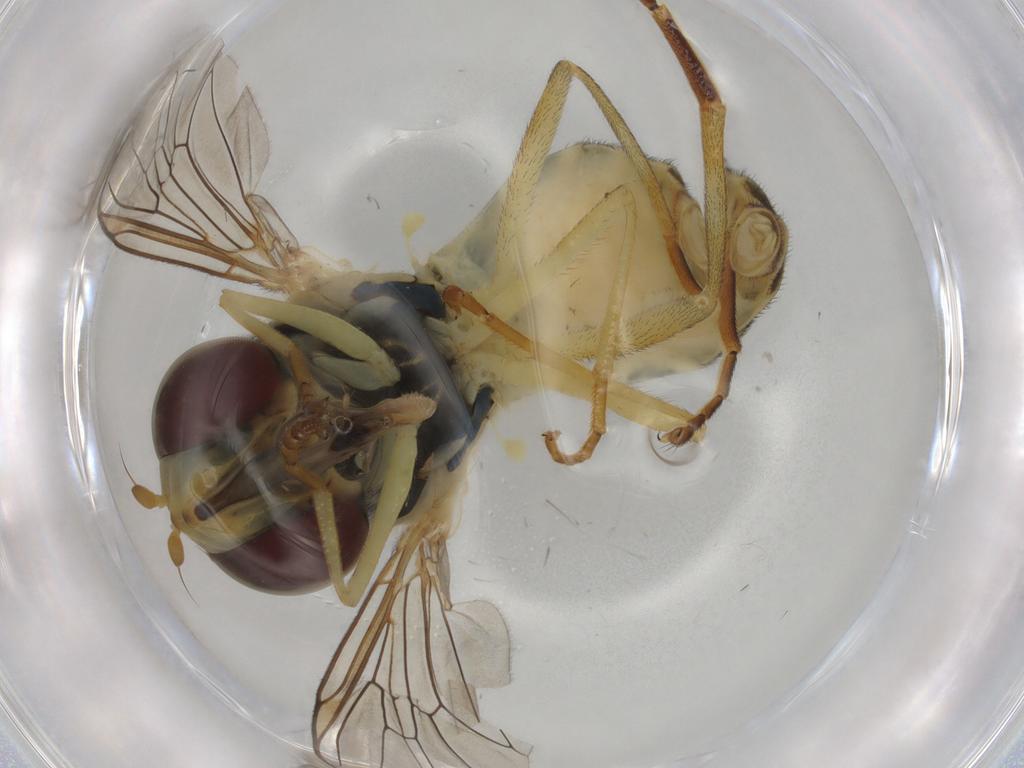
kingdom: Animalia
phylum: Arthropoda
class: Insecta
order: Diptera
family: Syrphidae
